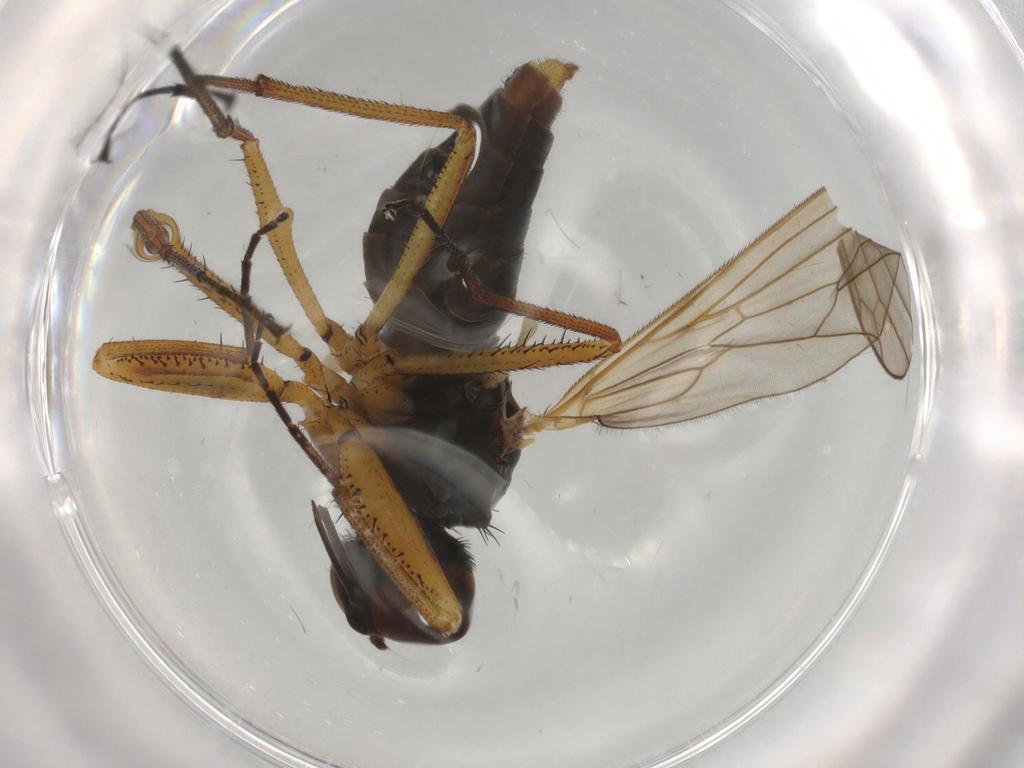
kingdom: Animalia
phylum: Arthropoda
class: Insecta
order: Diptera
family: Empididae
